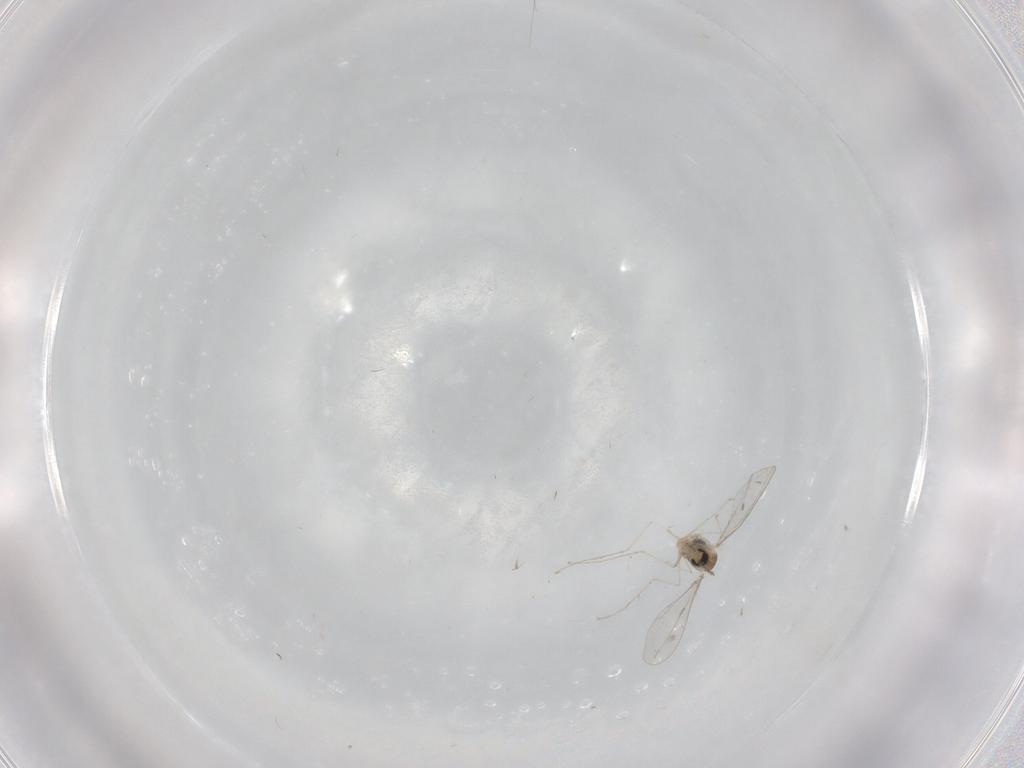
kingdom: Animalia
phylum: Arthropoda
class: Insecta
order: Diptera
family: Cecidomyiidae
